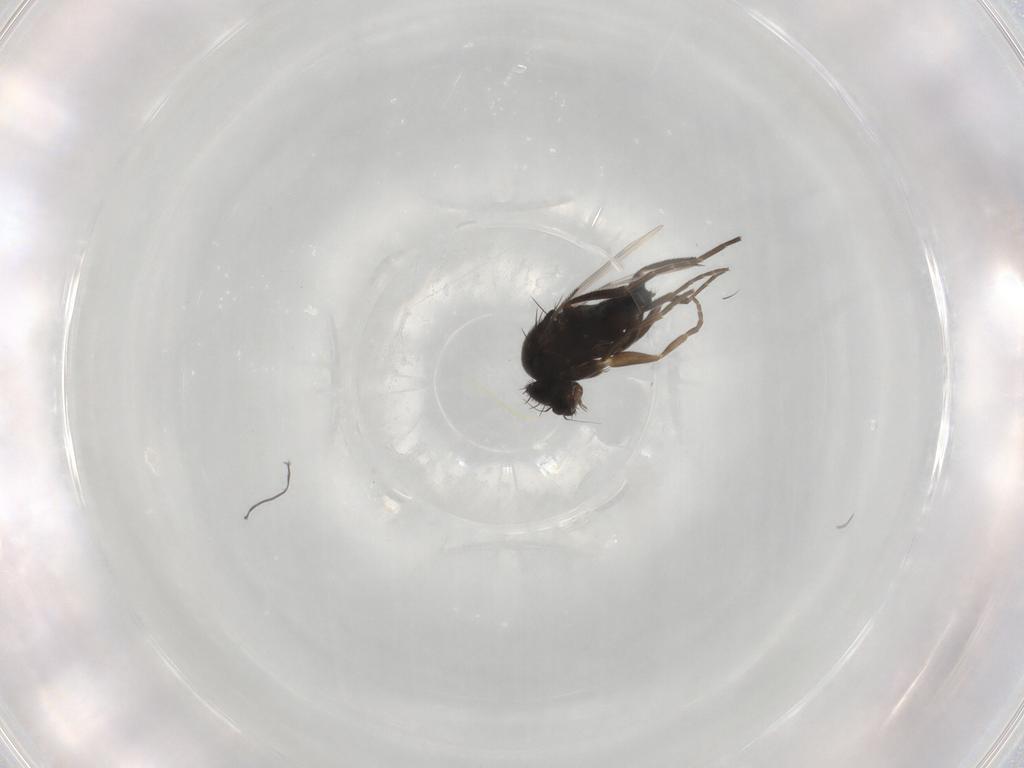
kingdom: Animalia
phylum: Arthropoda
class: Insecta
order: Diptera
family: Phoridae
